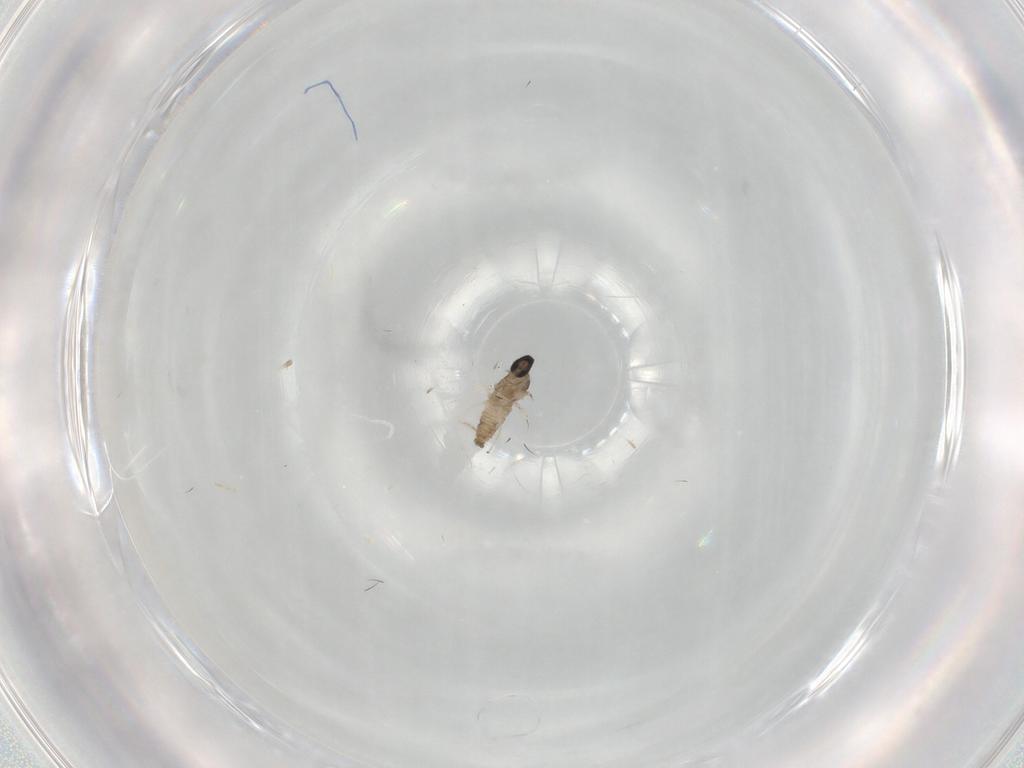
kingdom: Animalia
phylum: Arthropoda
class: Insecta
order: Diptera
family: Cecidomyiidae
